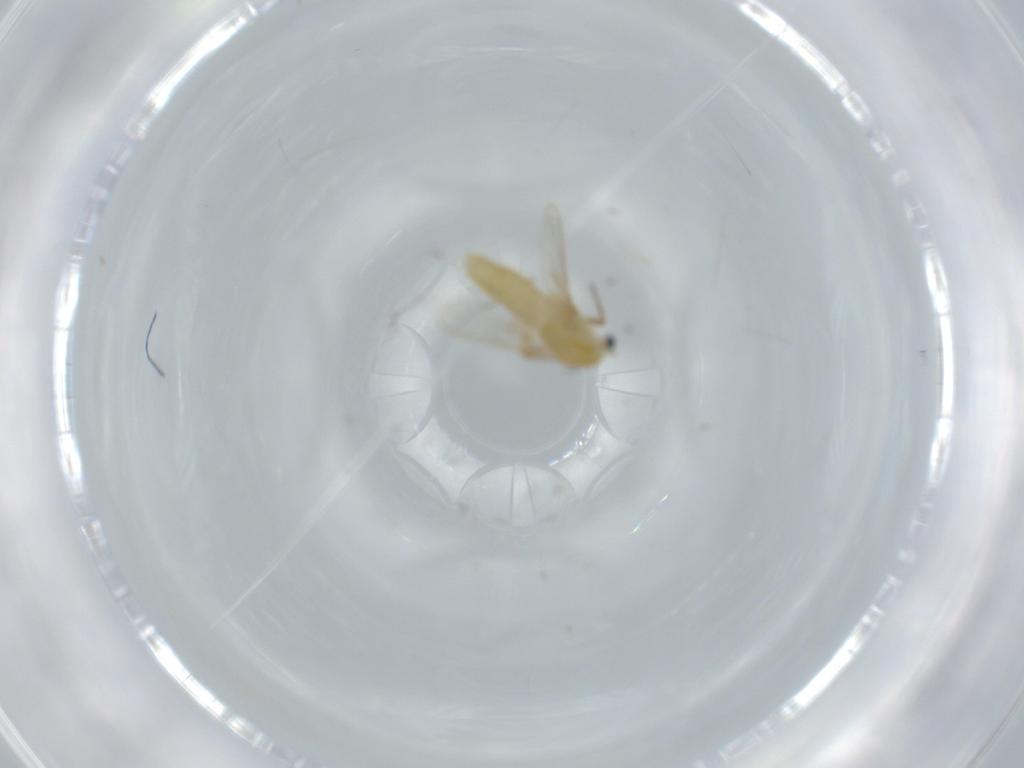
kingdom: Animalia
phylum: Arthropoda
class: Insecta
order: Diptera
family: Chironomidae
